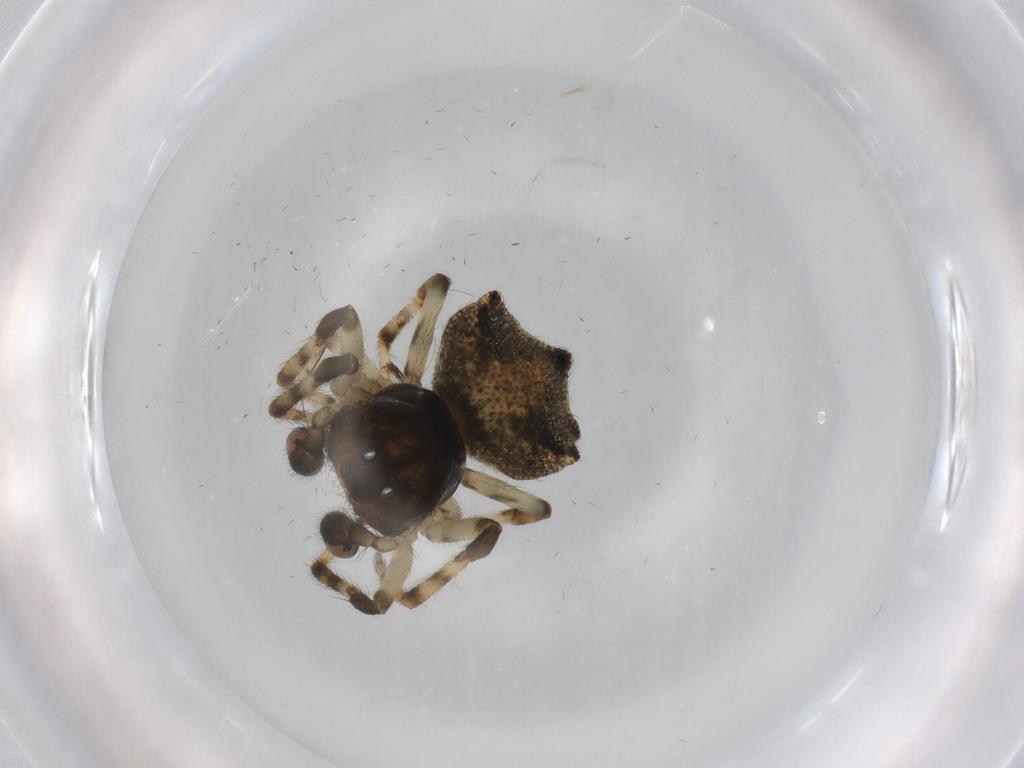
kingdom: Animalia
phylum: Arthropoda
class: Arachnida
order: Araneae
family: Araneidae
